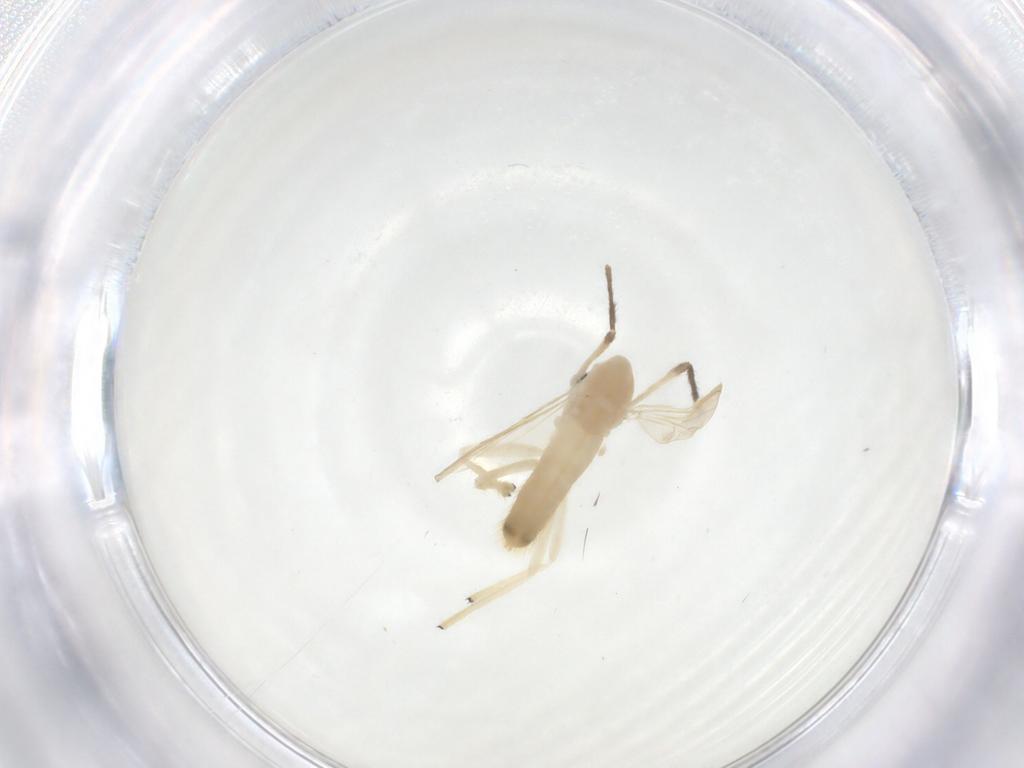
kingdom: Animalia
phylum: Arthropoda
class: Insecta
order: Diptera
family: Chironomidae
